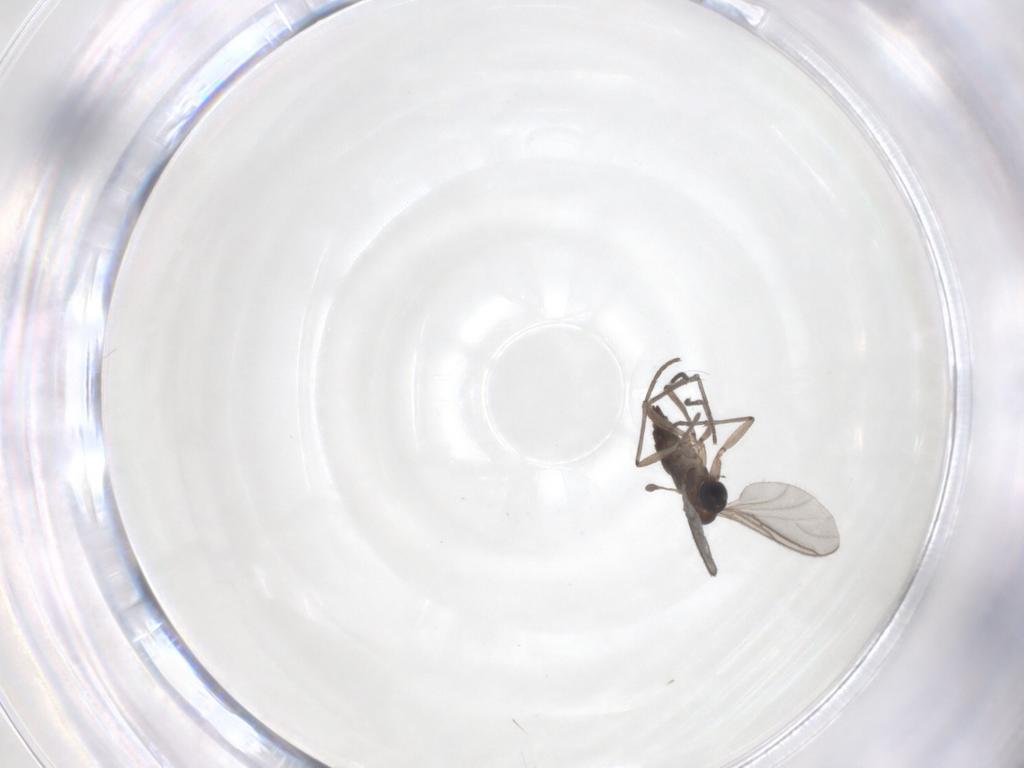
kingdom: Animalia
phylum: Arthropoda
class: Insecta
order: Diptera
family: Sciaridae
